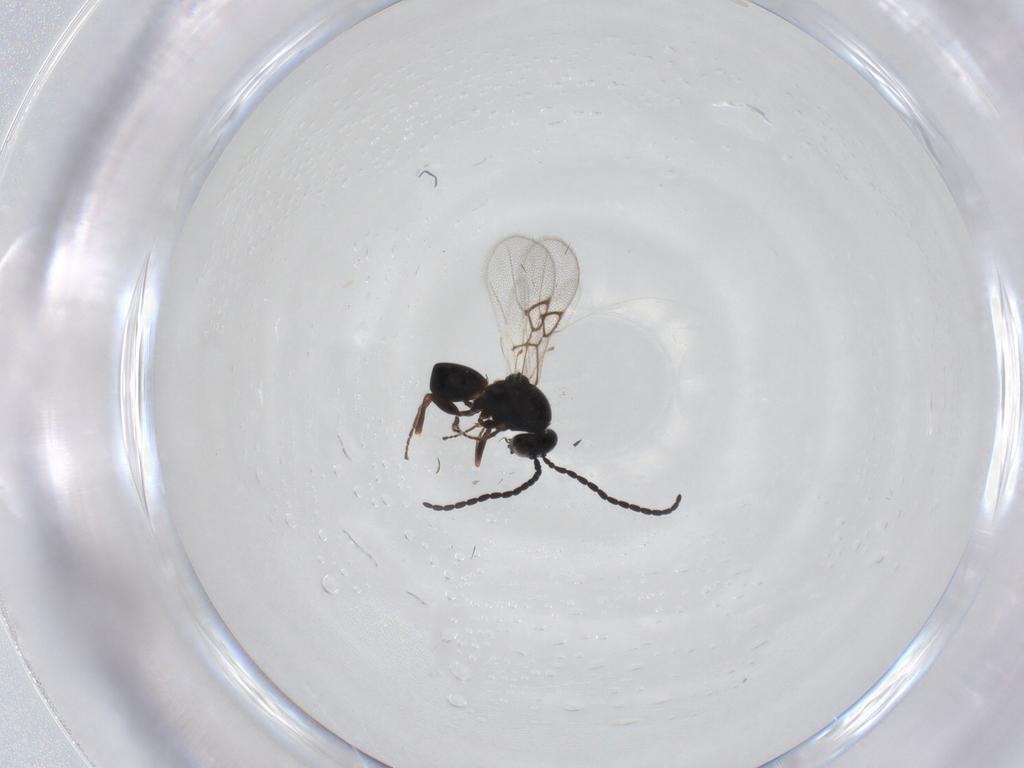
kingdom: Animalia
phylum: Arthropoda
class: Insecta
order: Hymenoptera
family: Figitidae
